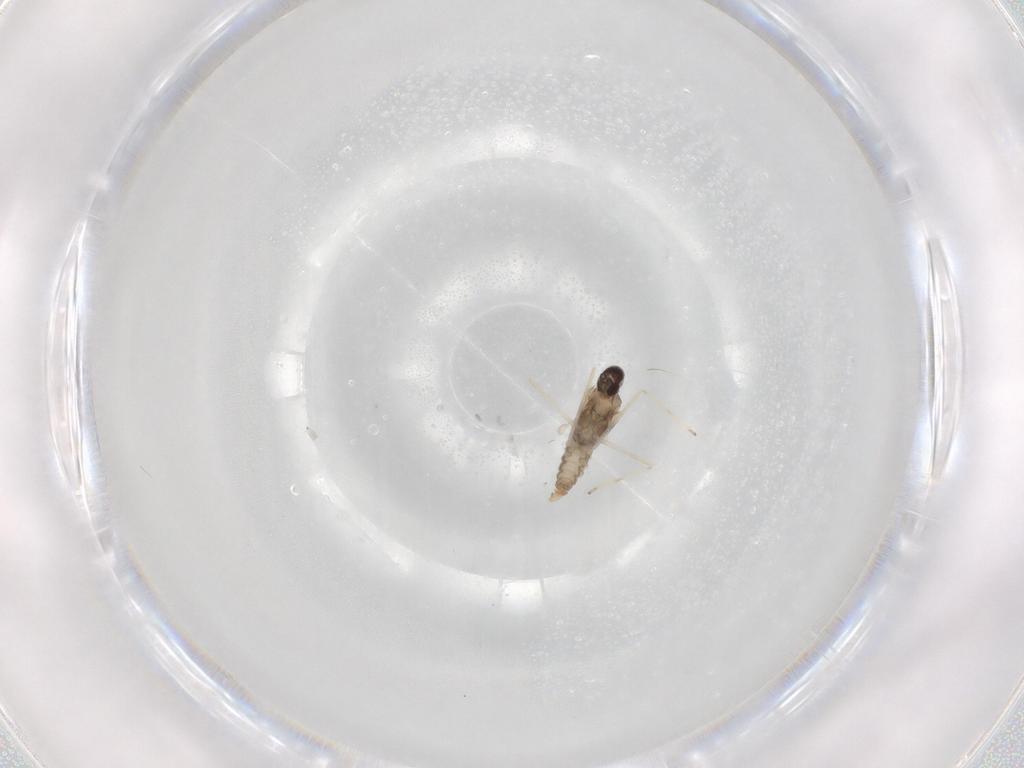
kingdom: Animalia
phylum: Arthropoda
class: Insecta
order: Diptera
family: Cecidomyiidae
